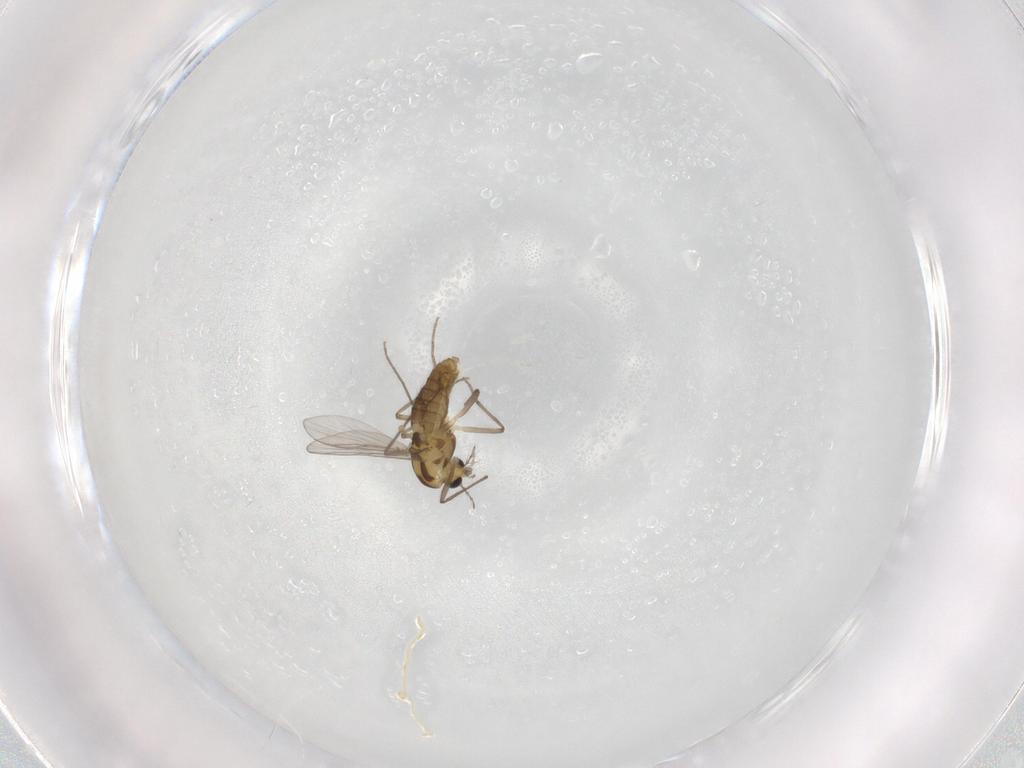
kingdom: Animalia
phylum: Arthropoda
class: Insecta
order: Diptera
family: Chironomidae
